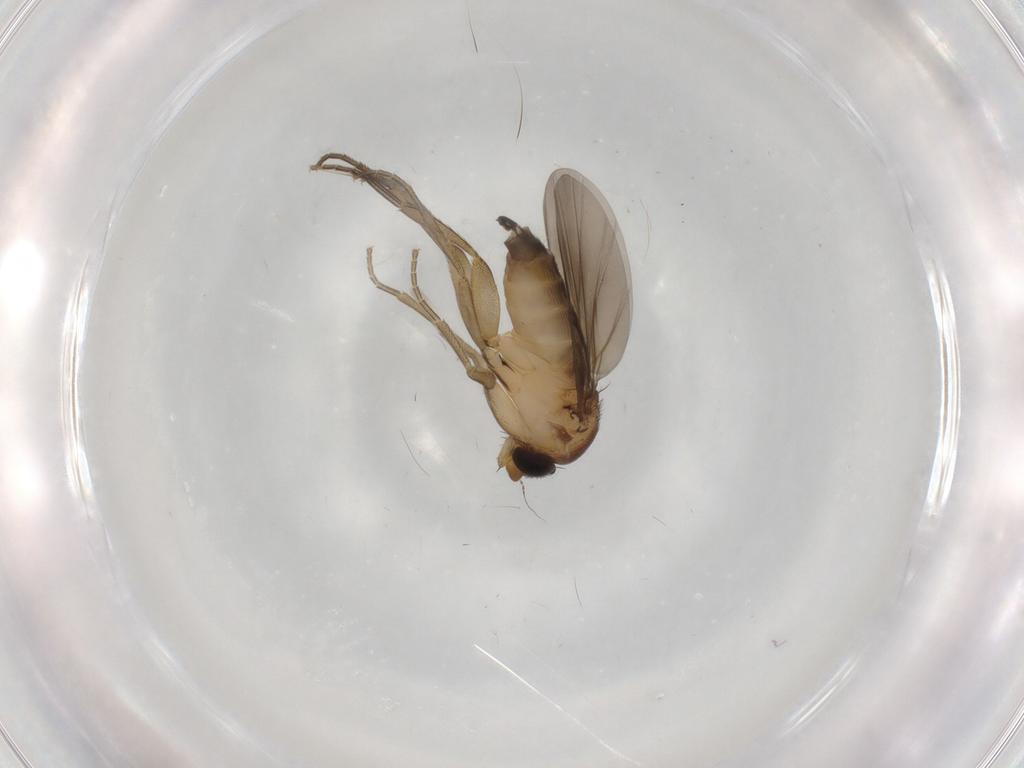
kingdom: Animalia
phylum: Arthropoda
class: Insecta
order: Diptera
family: Phoridae
